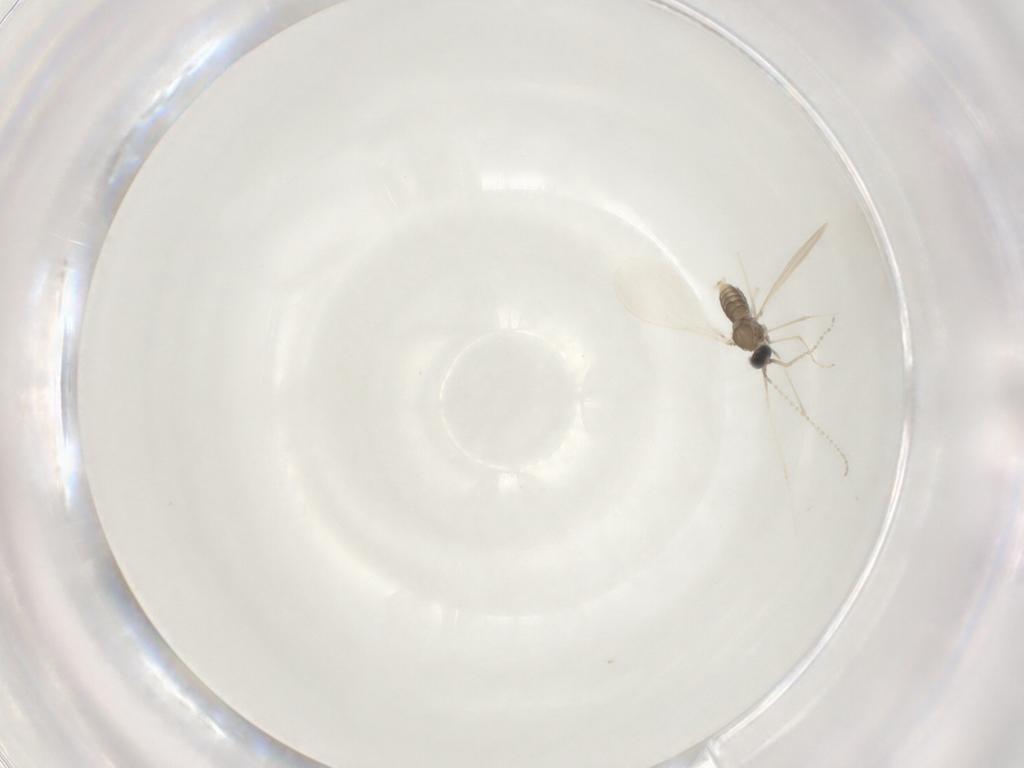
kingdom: Animalia
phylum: Arthropoda
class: Insecta
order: Diptera
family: Cecidomyiidae
